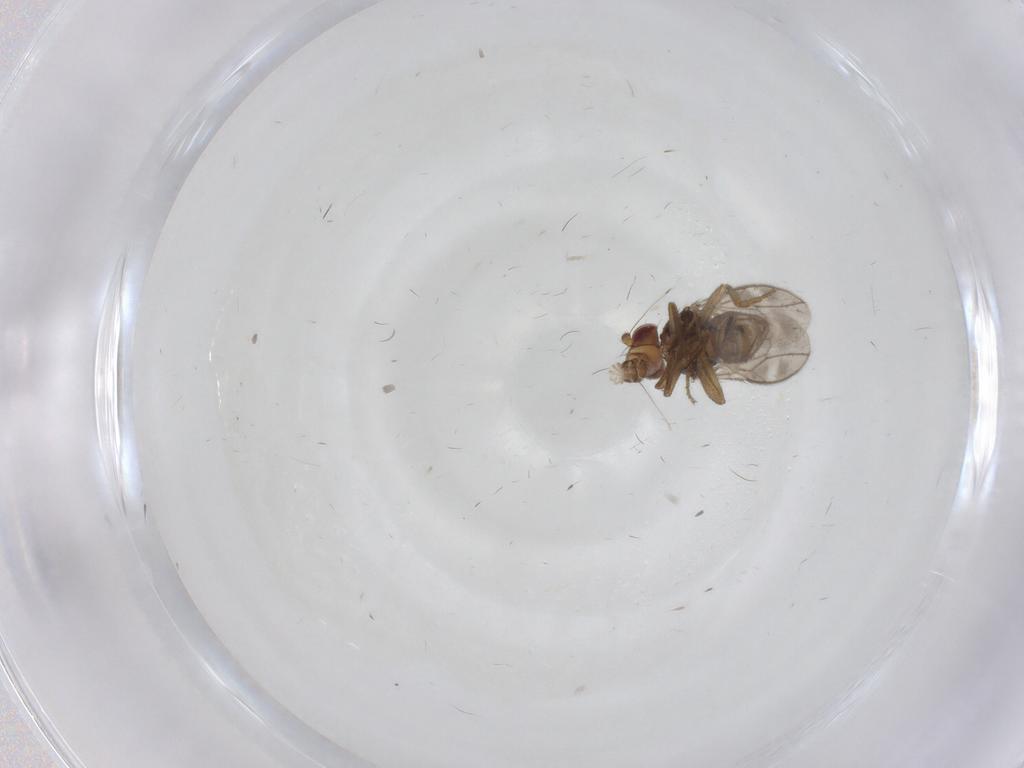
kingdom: Animalia
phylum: Arthropoda
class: Insecta
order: Diptera
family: Sphaeroceridae
